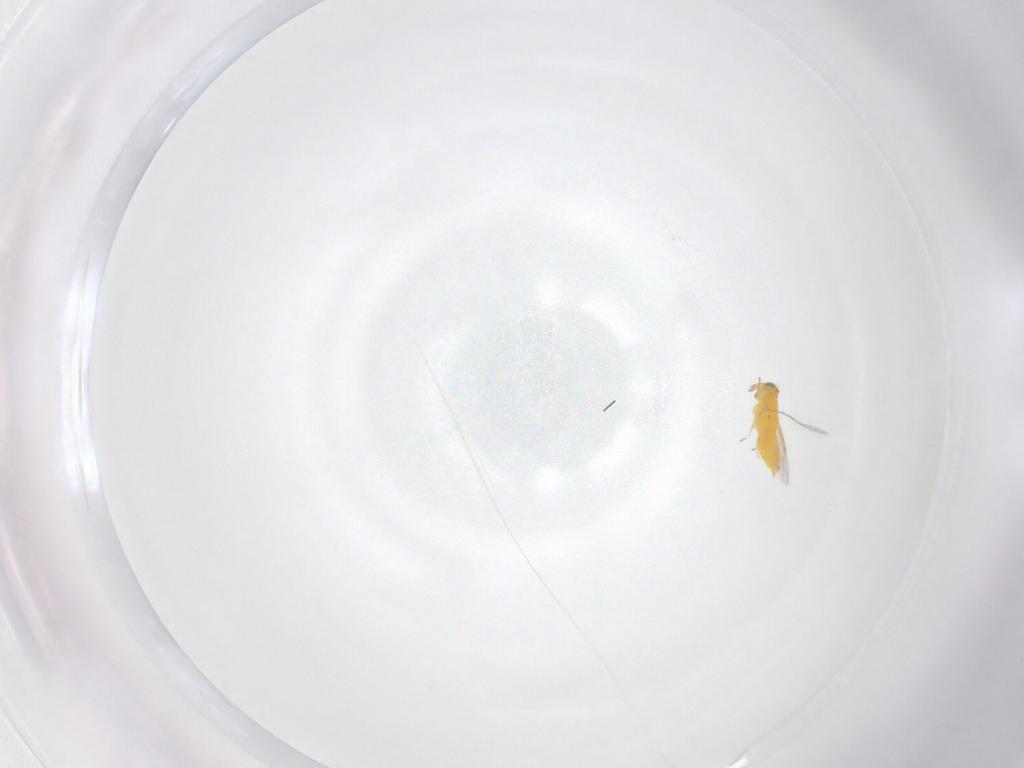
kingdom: Animalia
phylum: Arthropoda
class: Insecta
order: Hymenoptera
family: Aphelinidae
